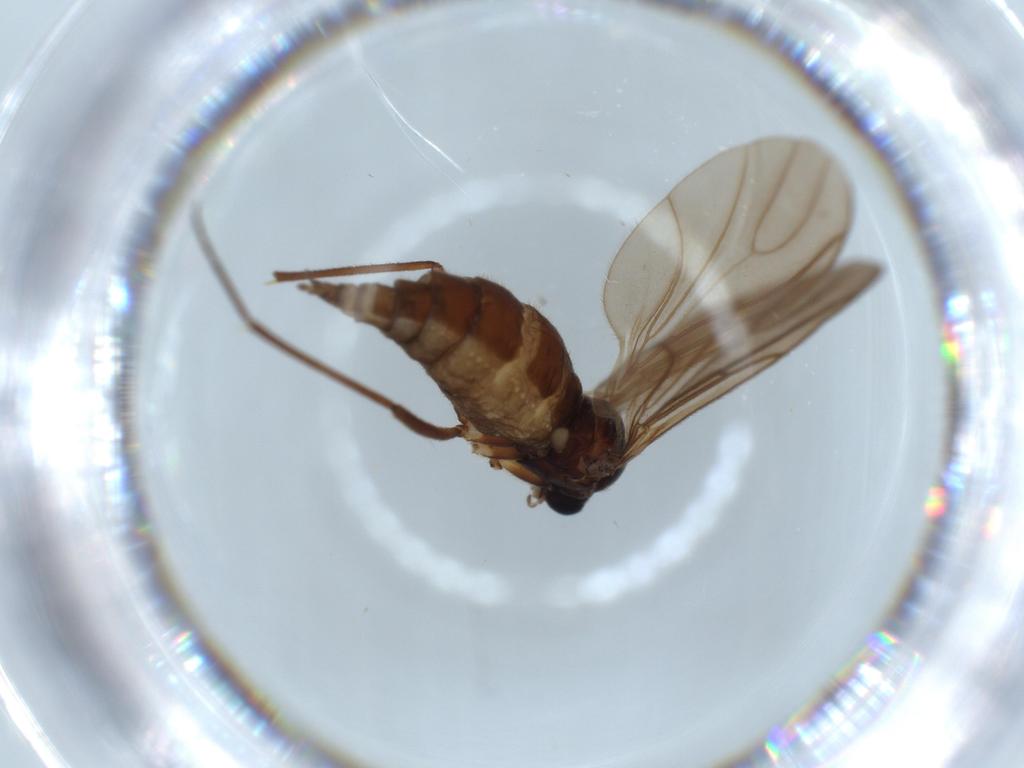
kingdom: Animalia
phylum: Arthropoda
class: Insecta
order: Diptera
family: Sciaridae
